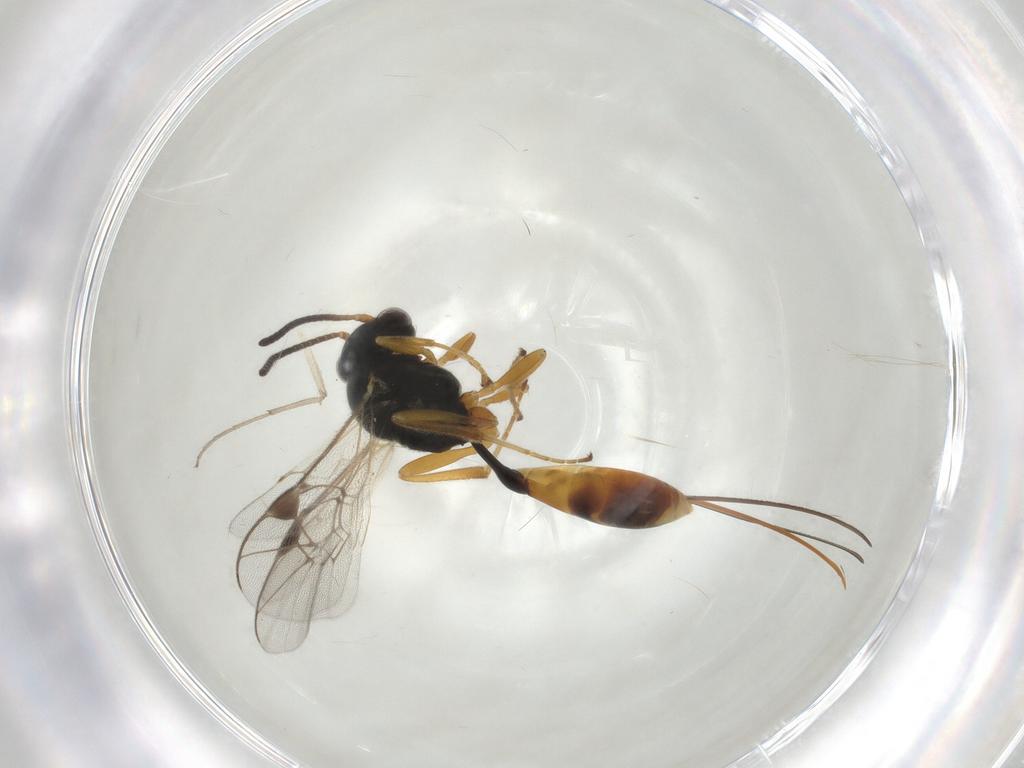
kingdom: Animalia
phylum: Arthropoda
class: Insecta
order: Hymenoptera
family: Ichneumonidae
